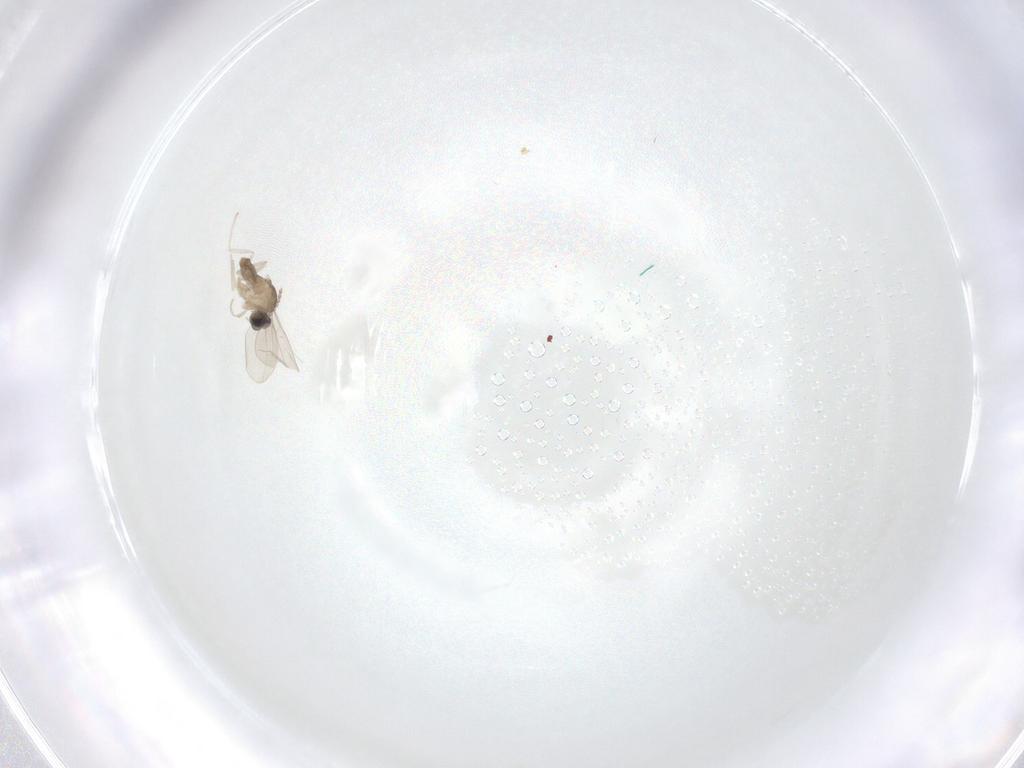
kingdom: Animalia
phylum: Arthropoda
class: Insecta
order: Diptera
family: Cecidomyiidae
